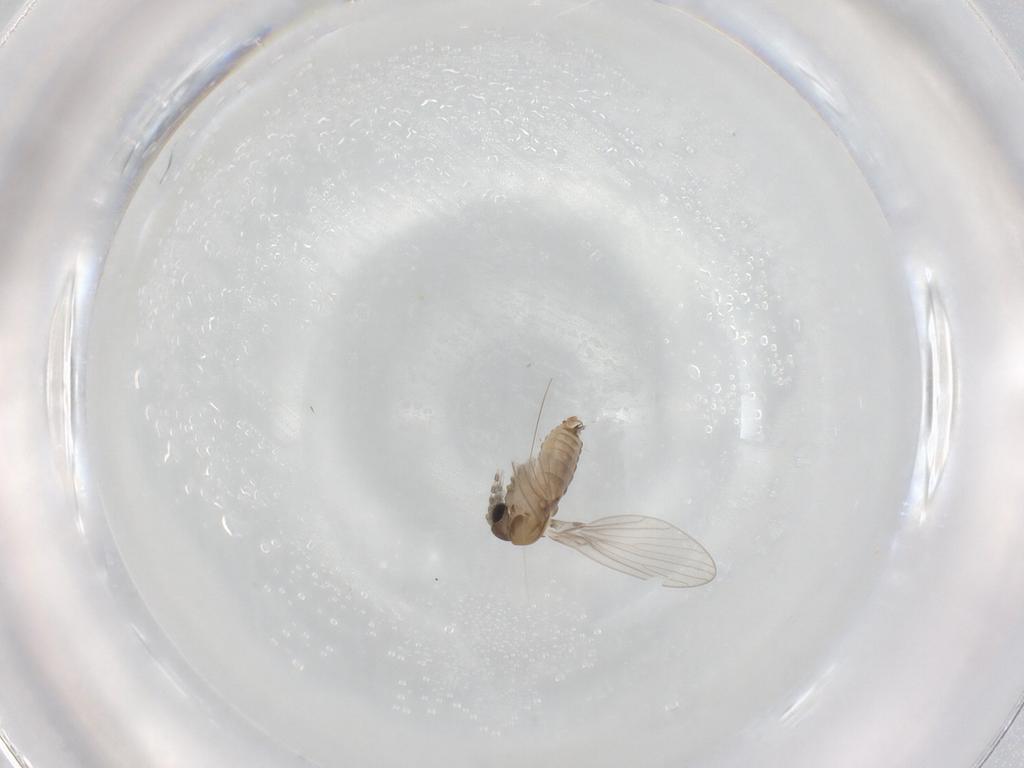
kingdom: Animalia
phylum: Arthropoda
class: Insecta
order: Diptera
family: Psychodidae
